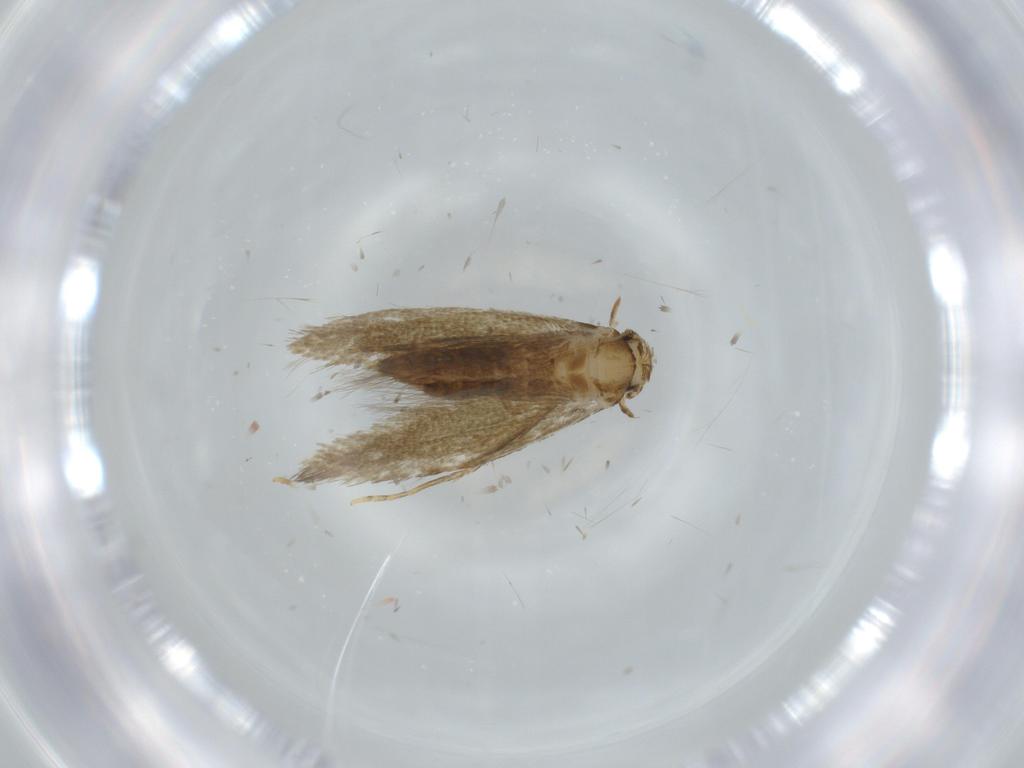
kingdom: Animalia
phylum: Arthropoda
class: Insecta
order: Lepidoptera
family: Tineidae
